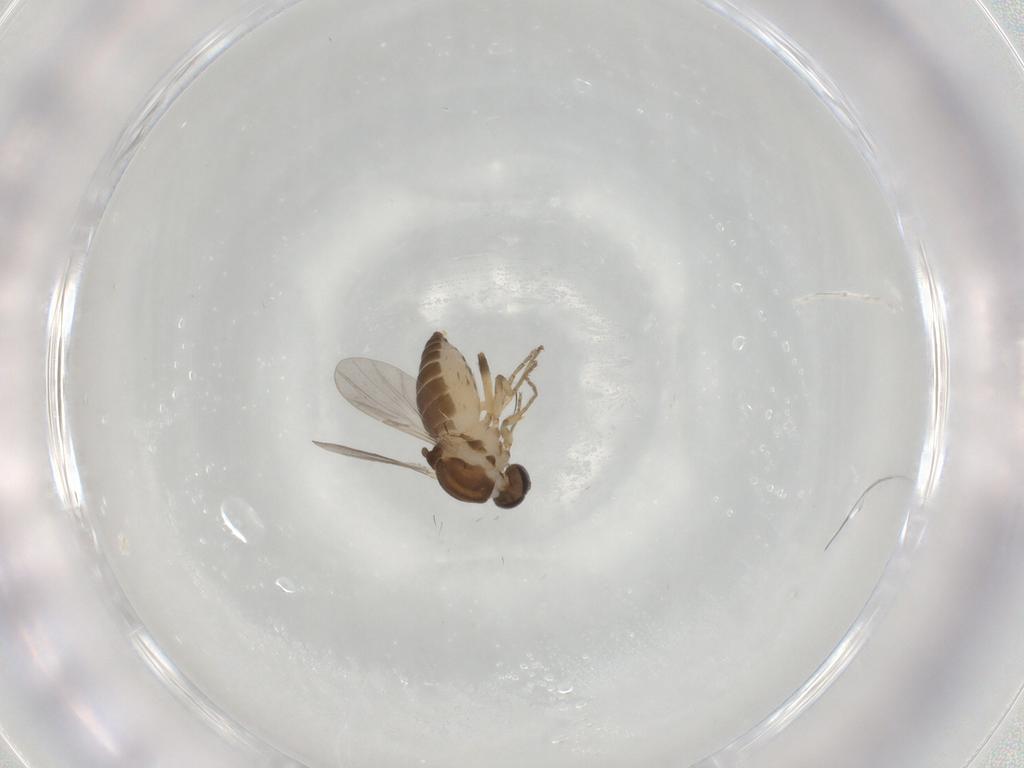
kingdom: Animalia
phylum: Arthropoda
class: Insecta
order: Diptera
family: Ceratopogonidae
